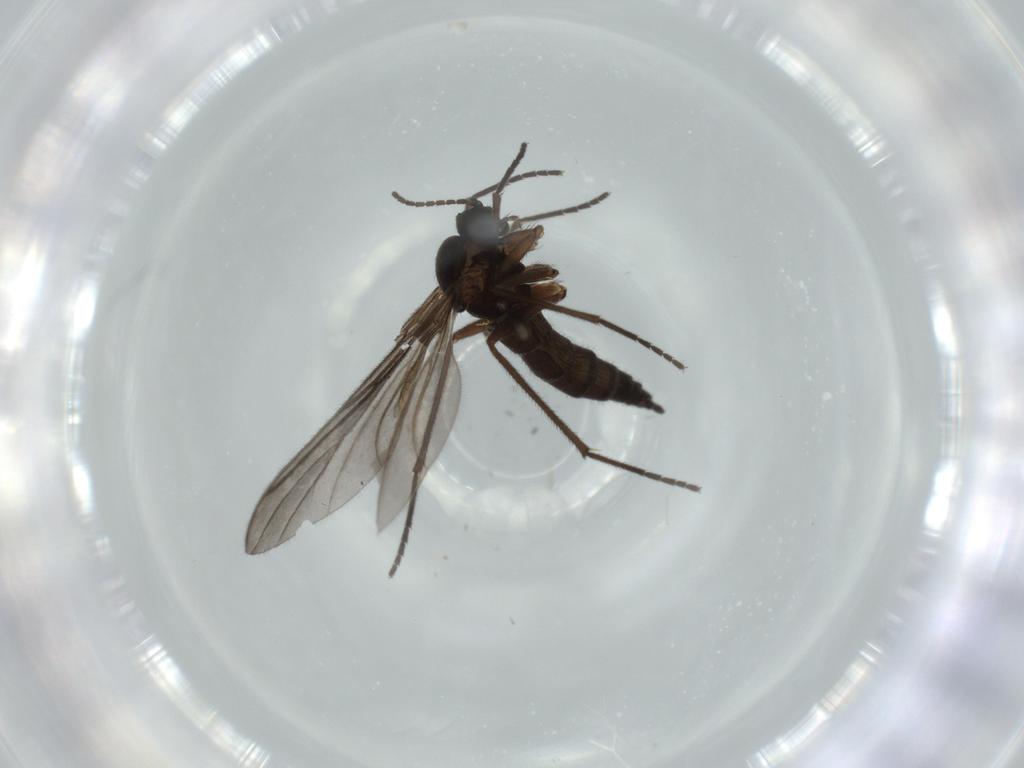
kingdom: Animalia
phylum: Arthropoda
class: Insecta
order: Diptera
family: Sciaridae
